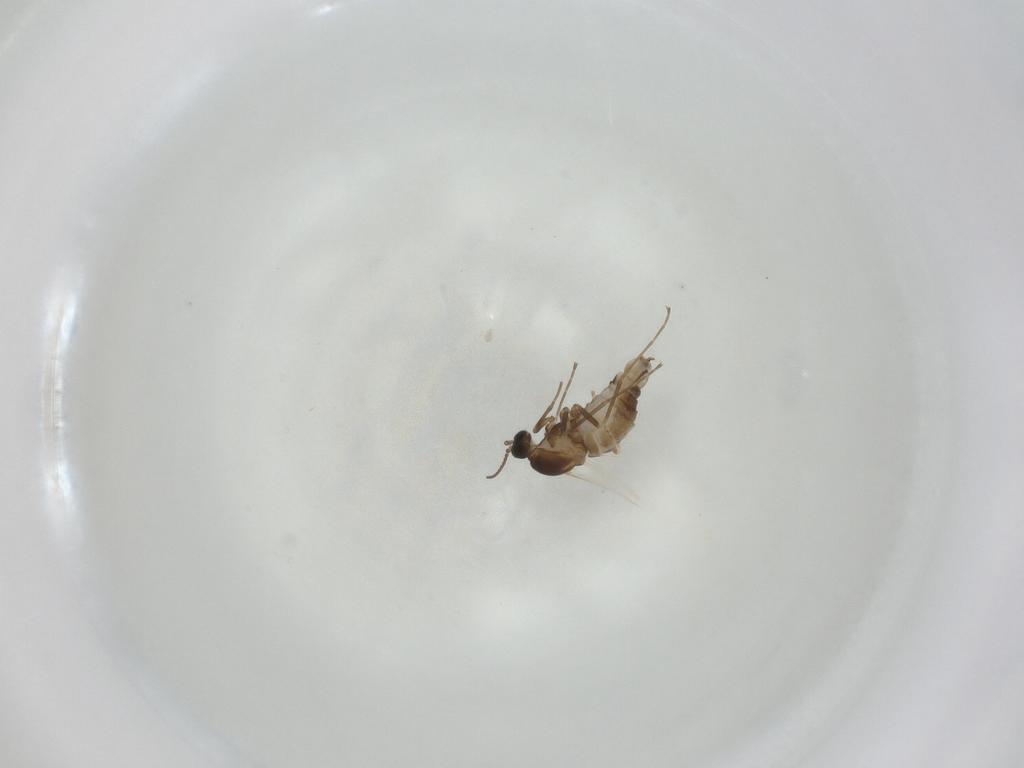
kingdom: Animalia
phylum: Arthropoda
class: Insecta
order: Diptera
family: Cecidomyiidae
